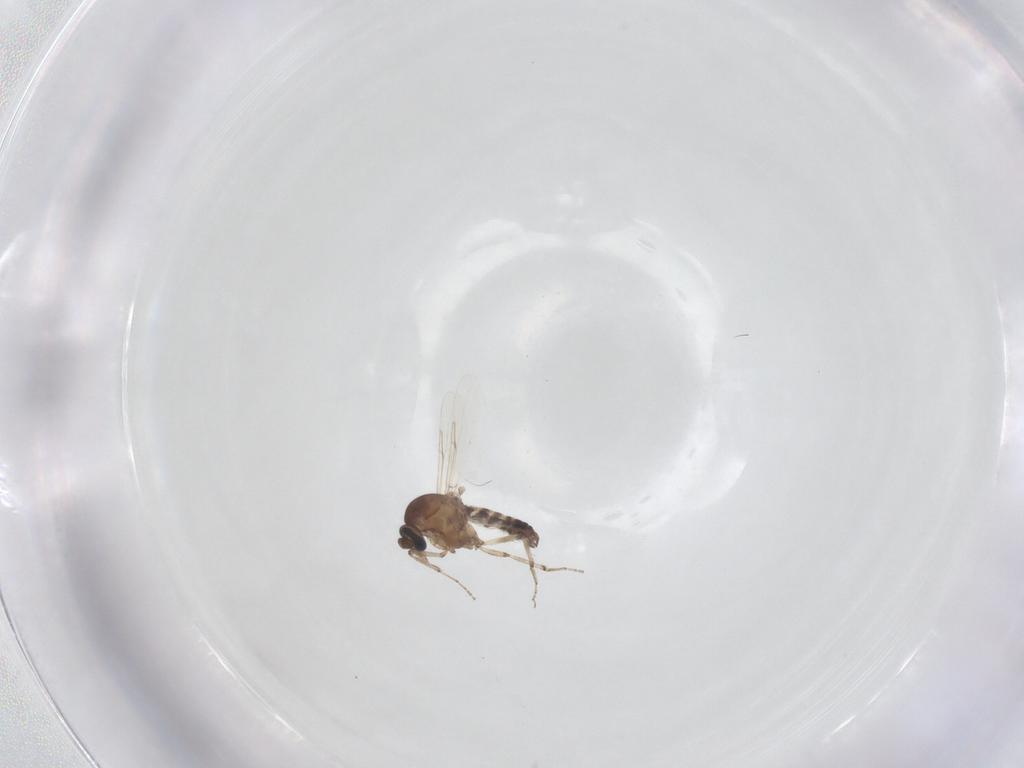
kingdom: Animalia
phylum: Arthropoda
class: Insecta
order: Diptera
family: Ceratopogonidae
